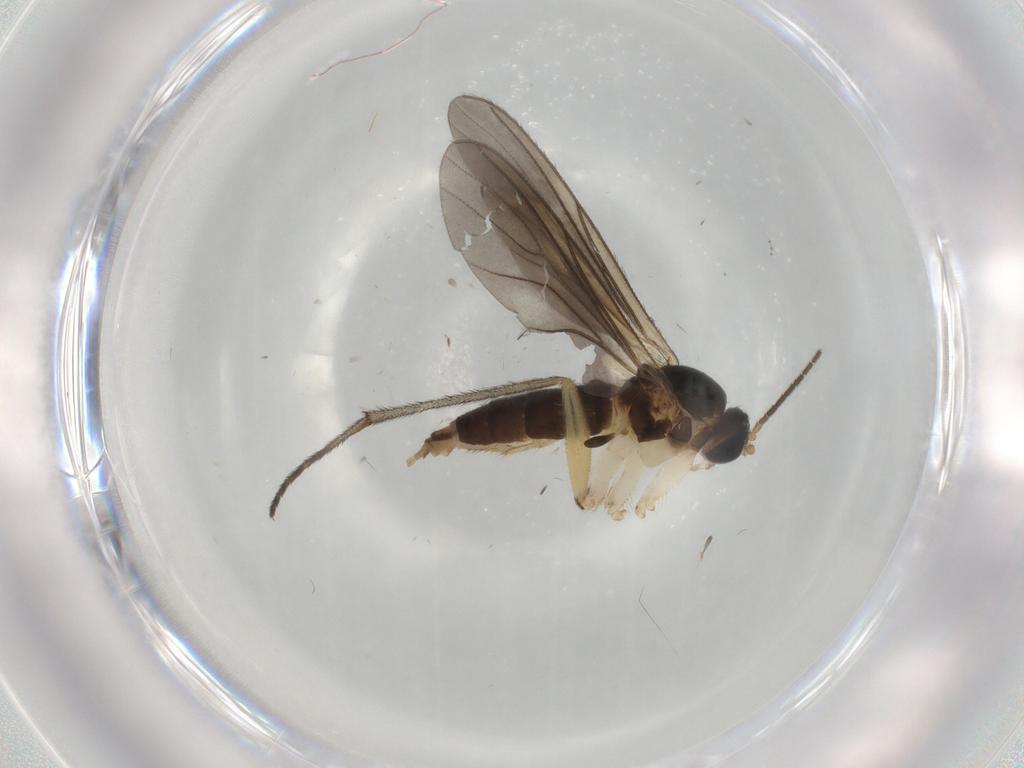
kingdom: Animalia
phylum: Arthropoda
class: Insecta
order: Diptera
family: Sciaridae
